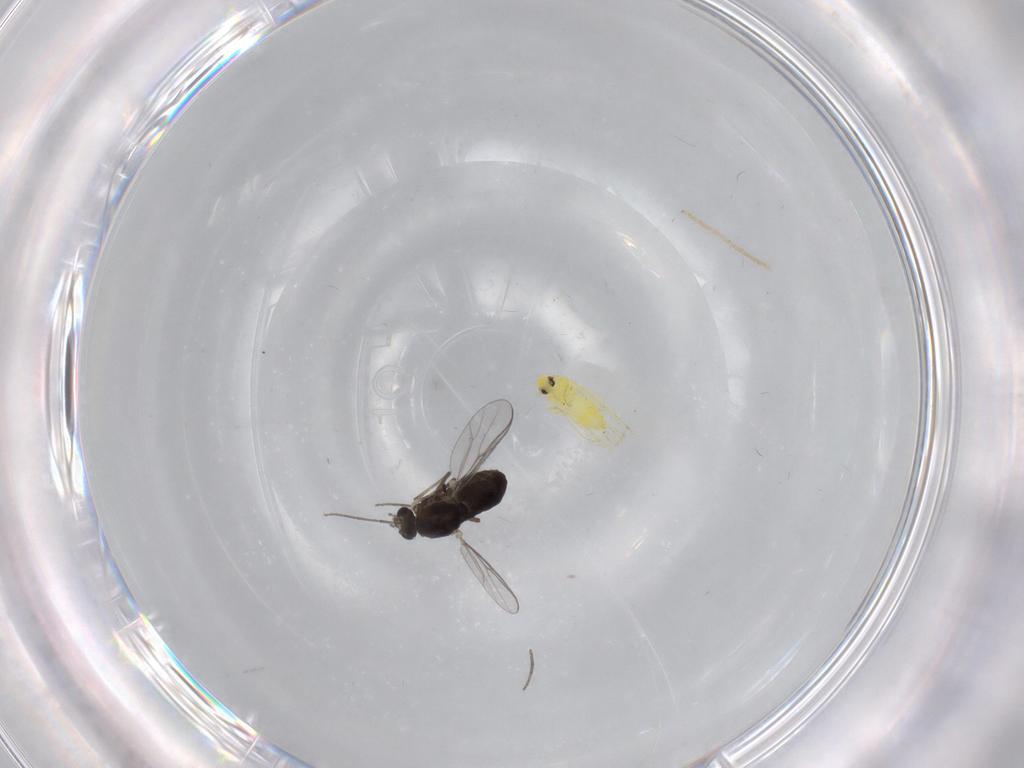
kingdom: Animalia
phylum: Arthropoda
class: Insecta
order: Diptera
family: Chironomidae
